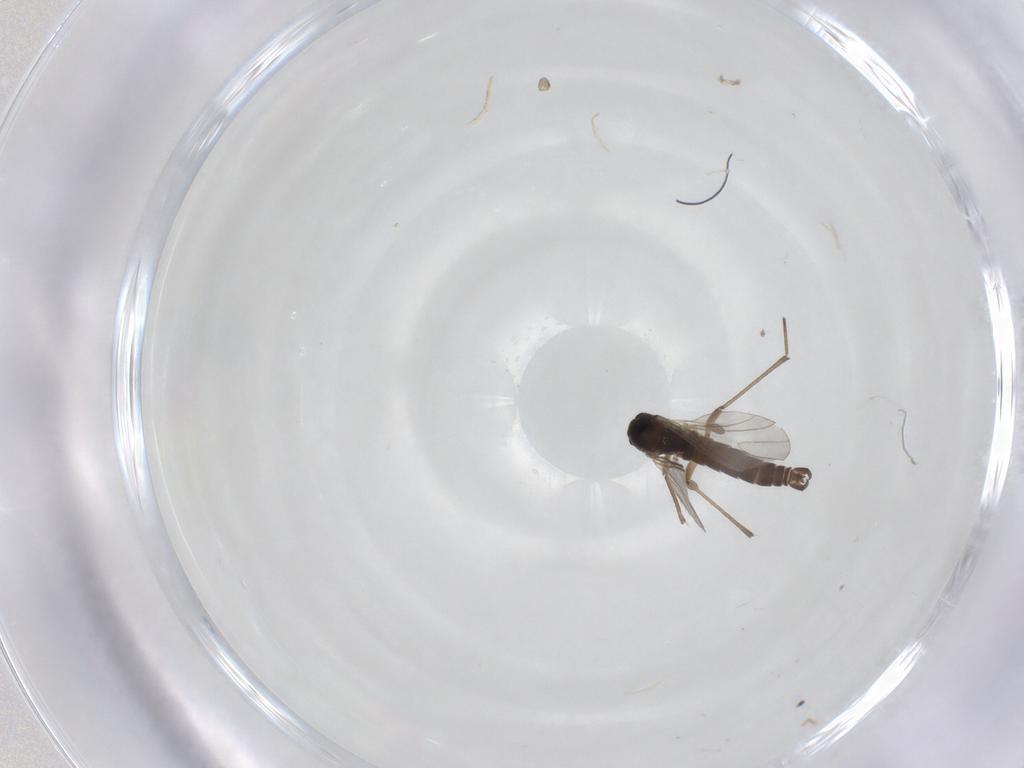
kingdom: Animalia
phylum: Arthropoda
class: Insecta
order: Diptera
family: Sciaridae
